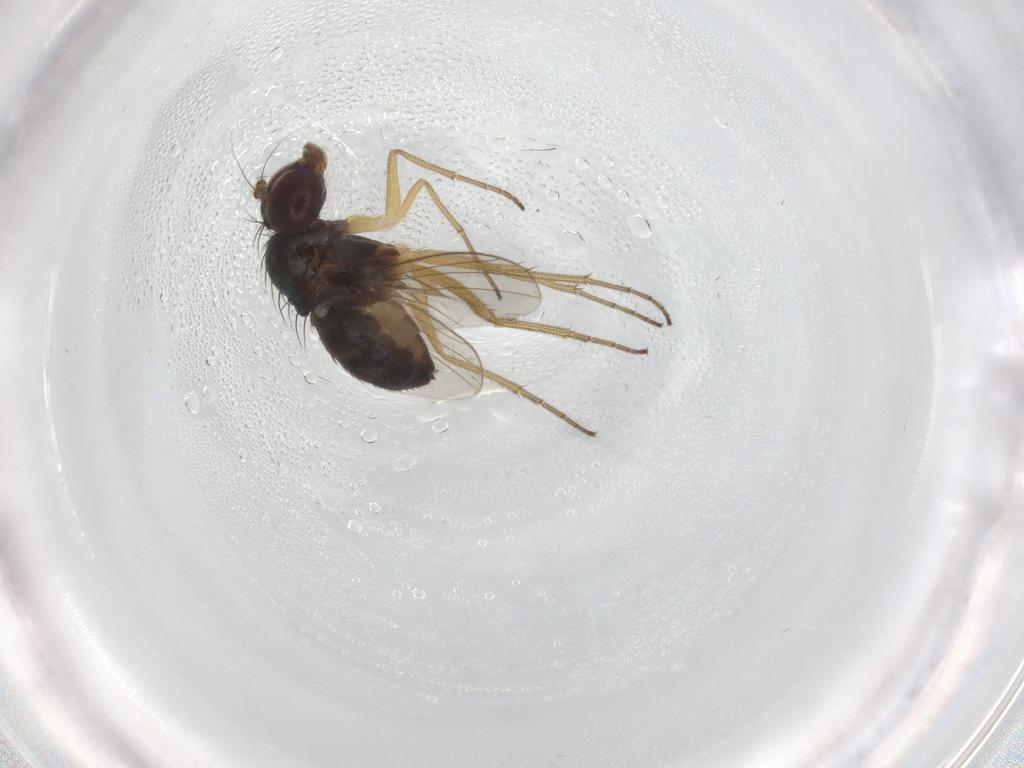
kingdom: Animalia
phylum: Arthropoda
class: Insecta
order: Diptera
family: Dolichopodidae
